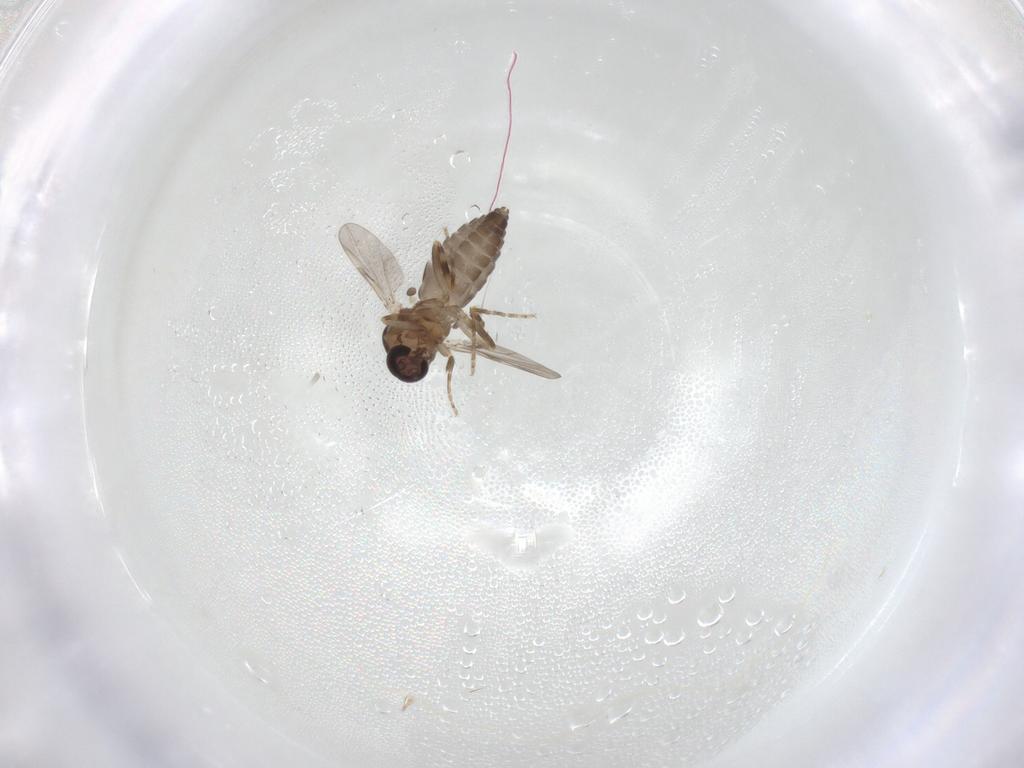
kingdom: Animalia
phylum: Arthropoda
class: Insecta
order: Diptera
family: Ceratopogonidae
